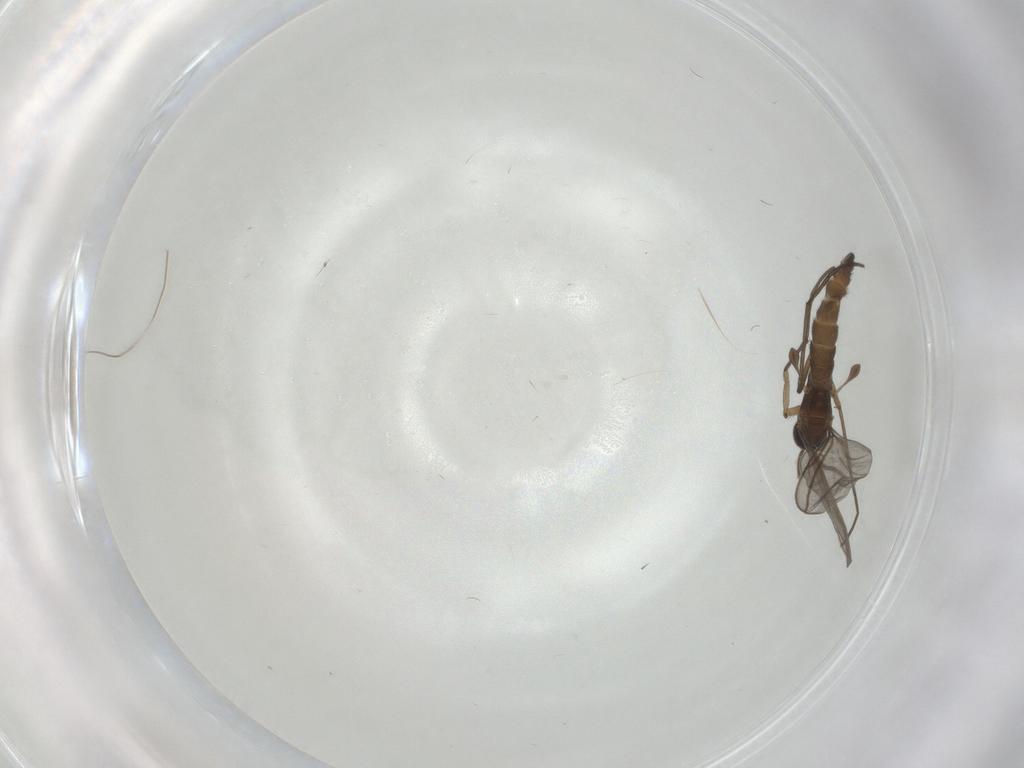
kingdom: Animalia
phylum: Arthropoda
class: Insecta
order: Diptera
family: Sciaridae
